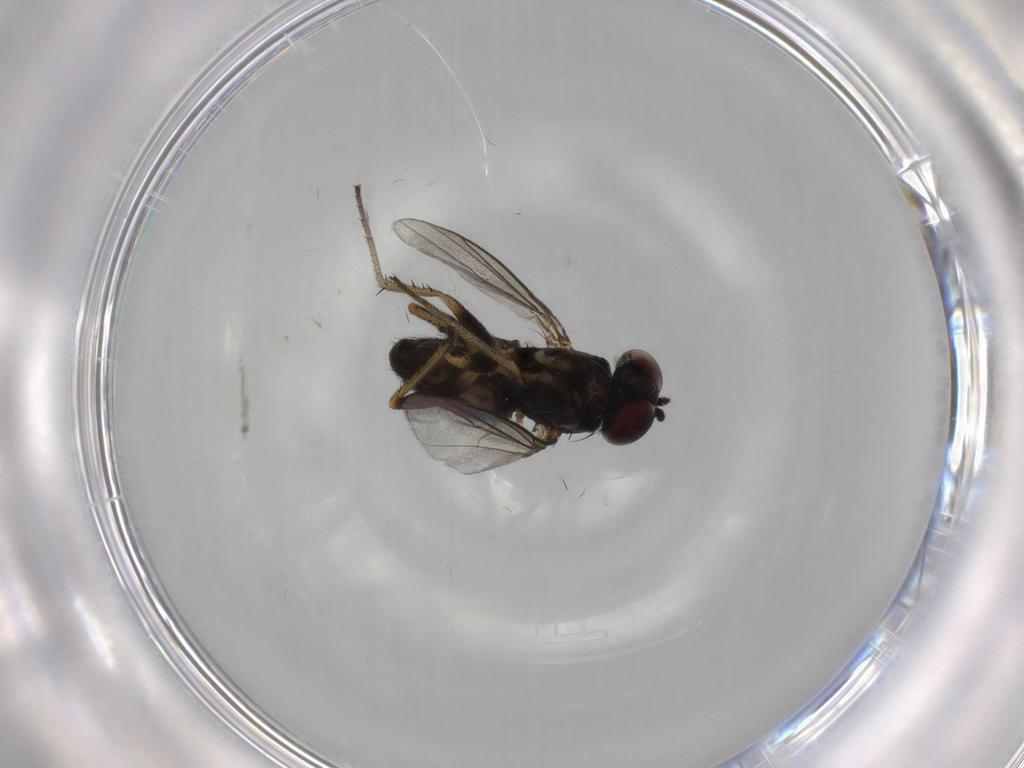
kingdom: Animalia
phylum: Arthropoda
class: Insecta
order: Diptera
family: Dolichopodidae
